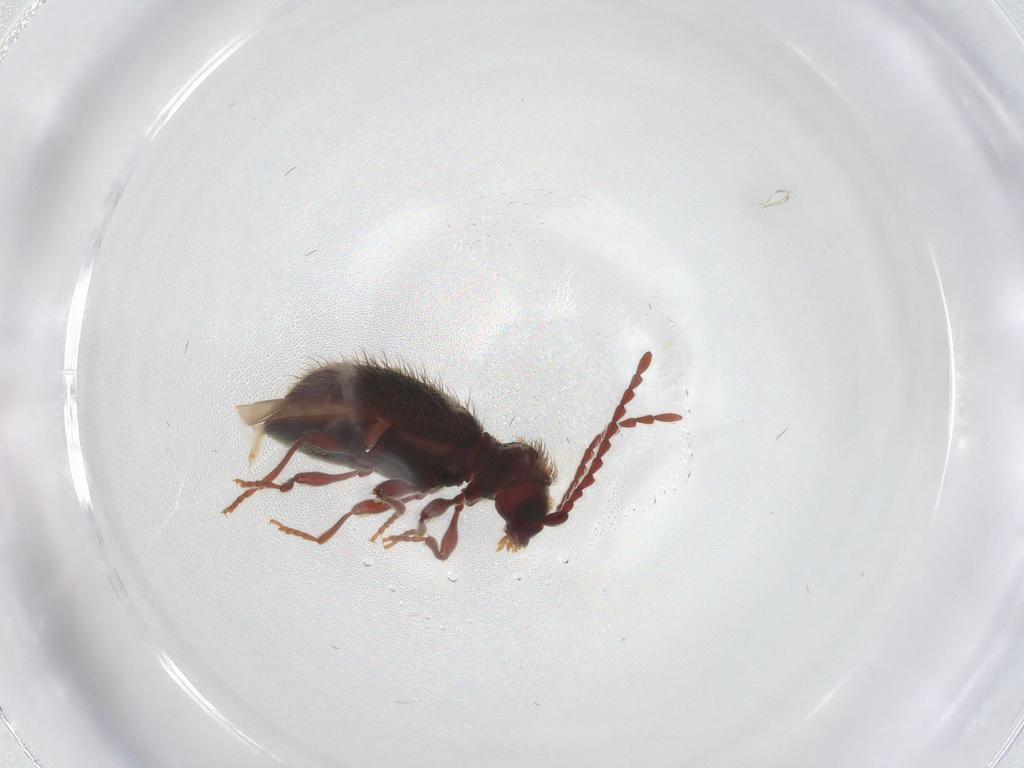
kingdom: Animalia
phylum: Arthropoda
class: Insecta
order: Coleoptera
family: Ptinidae
